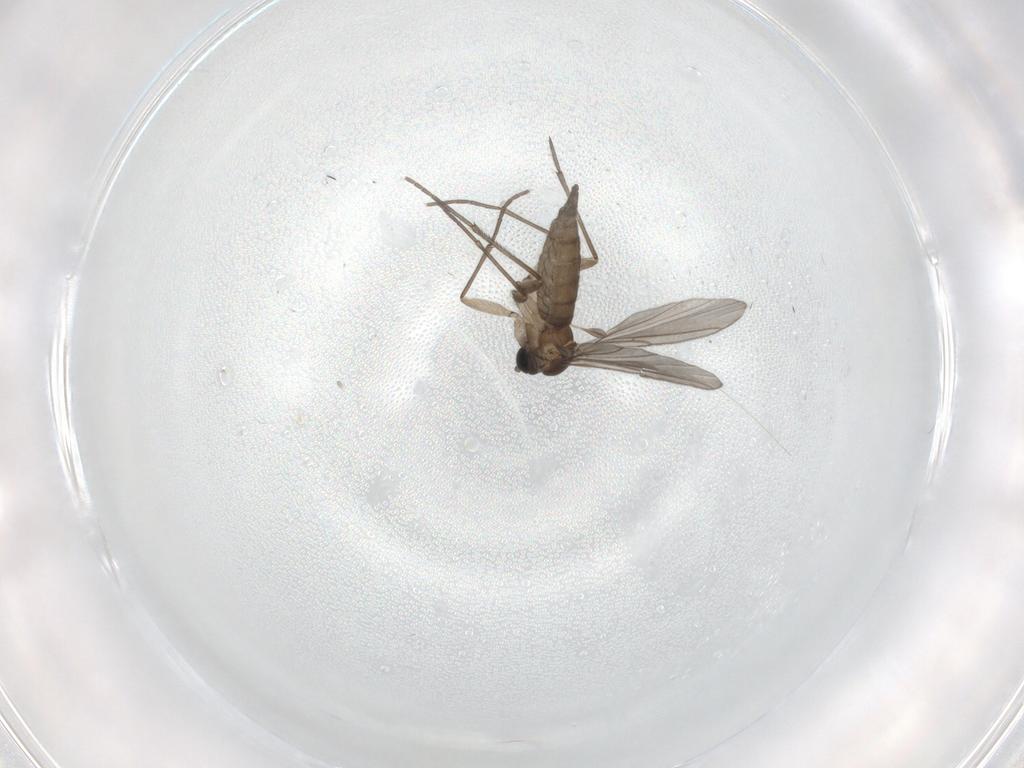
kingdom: Animalia
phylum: Arthropoda
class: Insecta
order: Diptera
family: Sciaridae
